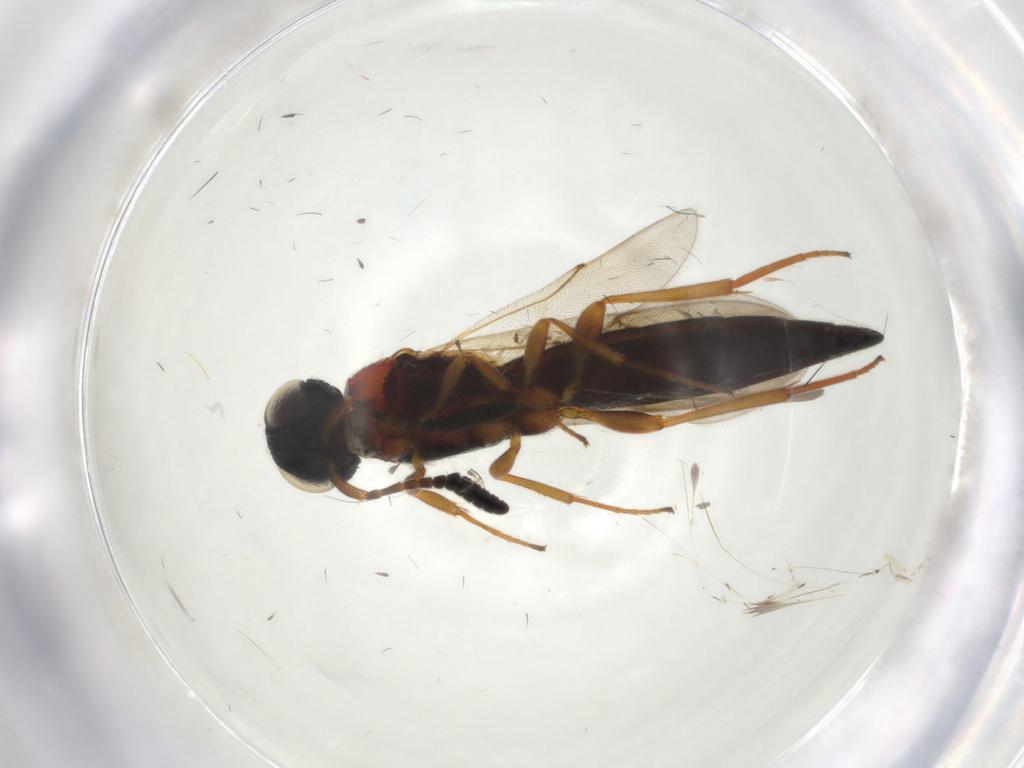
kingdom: Animalia
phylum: Arthropoda
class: Insecta
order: Hymenoptera
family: Scelionidae
